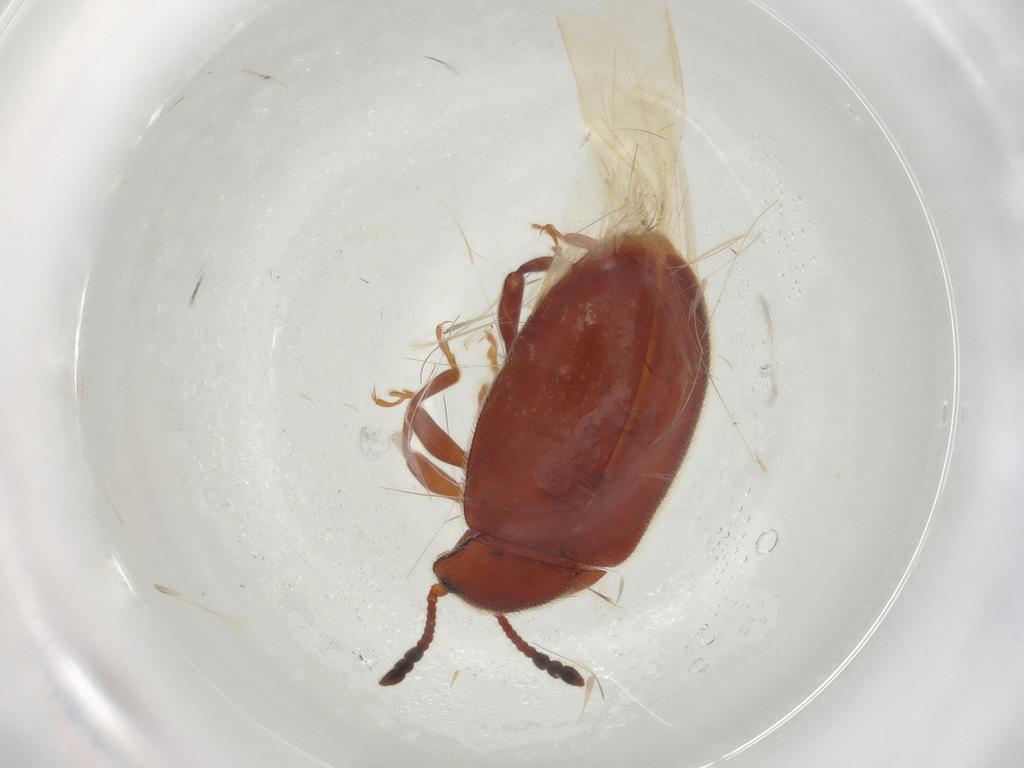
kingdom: Animalia
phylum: Arthropoda
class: Insecta
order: Coleoptera
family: Endomychidae
